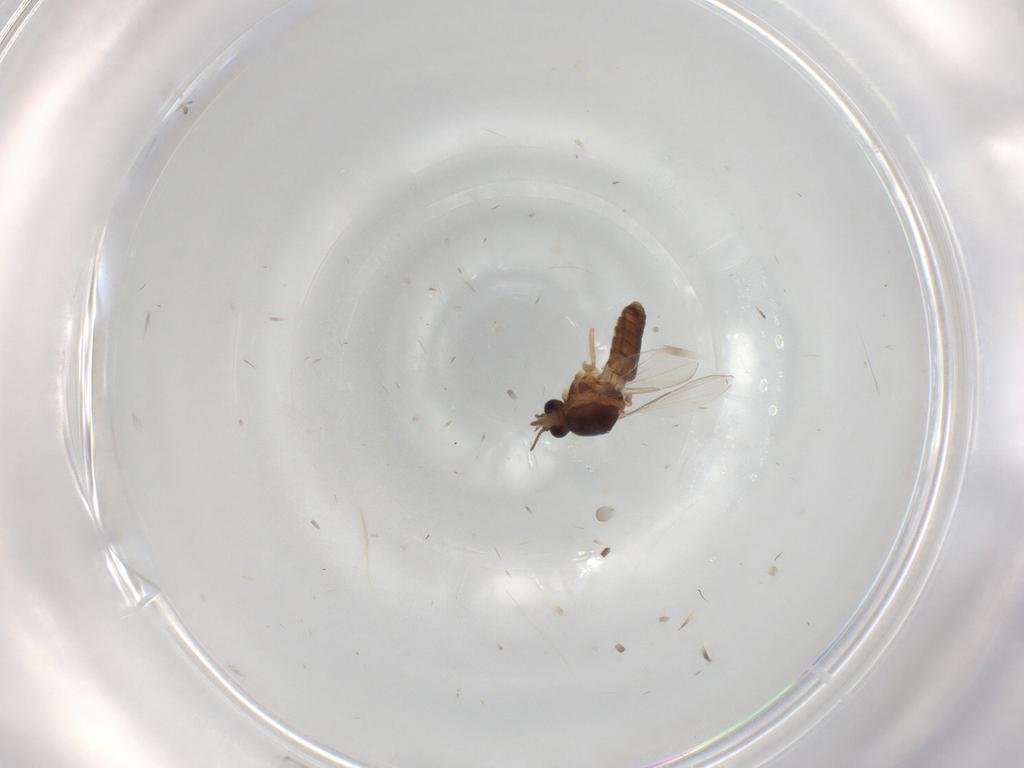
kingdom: Animalia
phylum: Arthropoda
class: Insecta
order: Diptera
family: Ceratopogonidae
